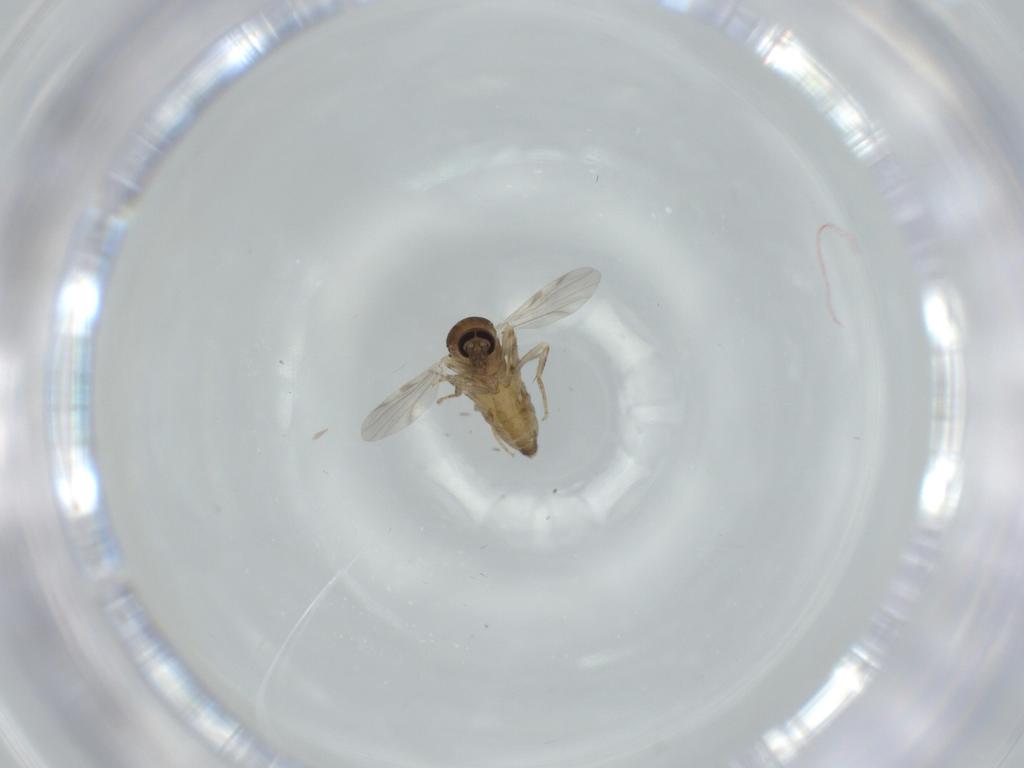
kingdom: Animalia
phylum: Arthropoda
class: Insecta
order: Diptera
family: Ceratopogonidae
